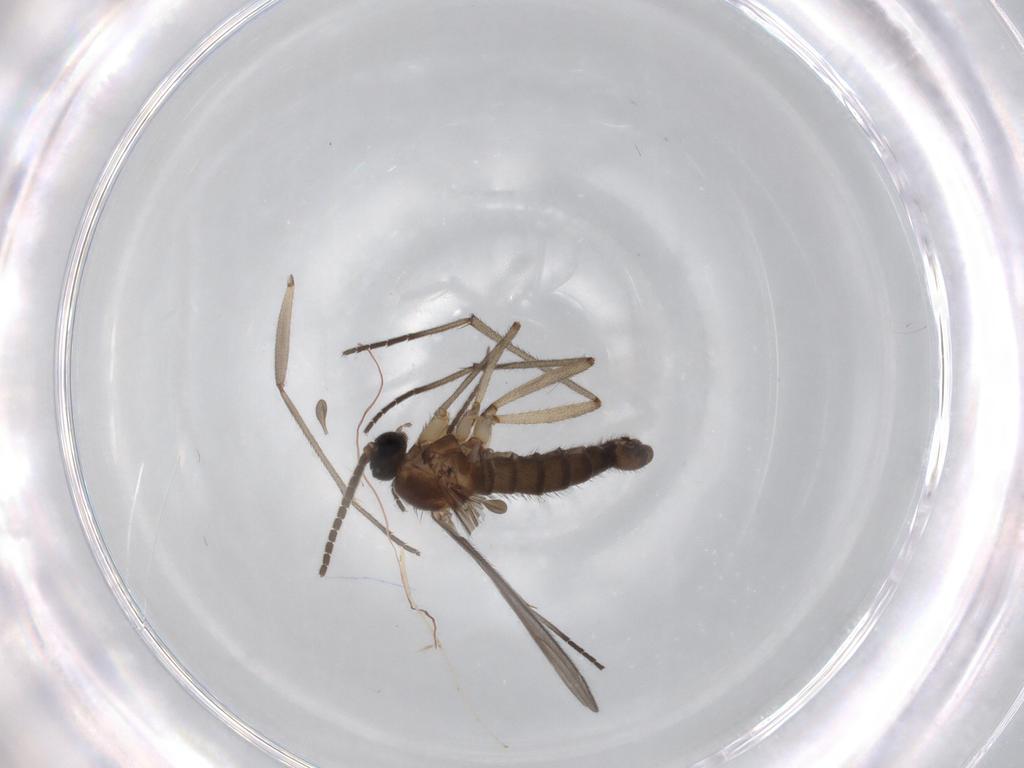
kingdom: Animalia
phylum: Arthropoda
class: Insecta
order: Diptera
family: Sciaridae
